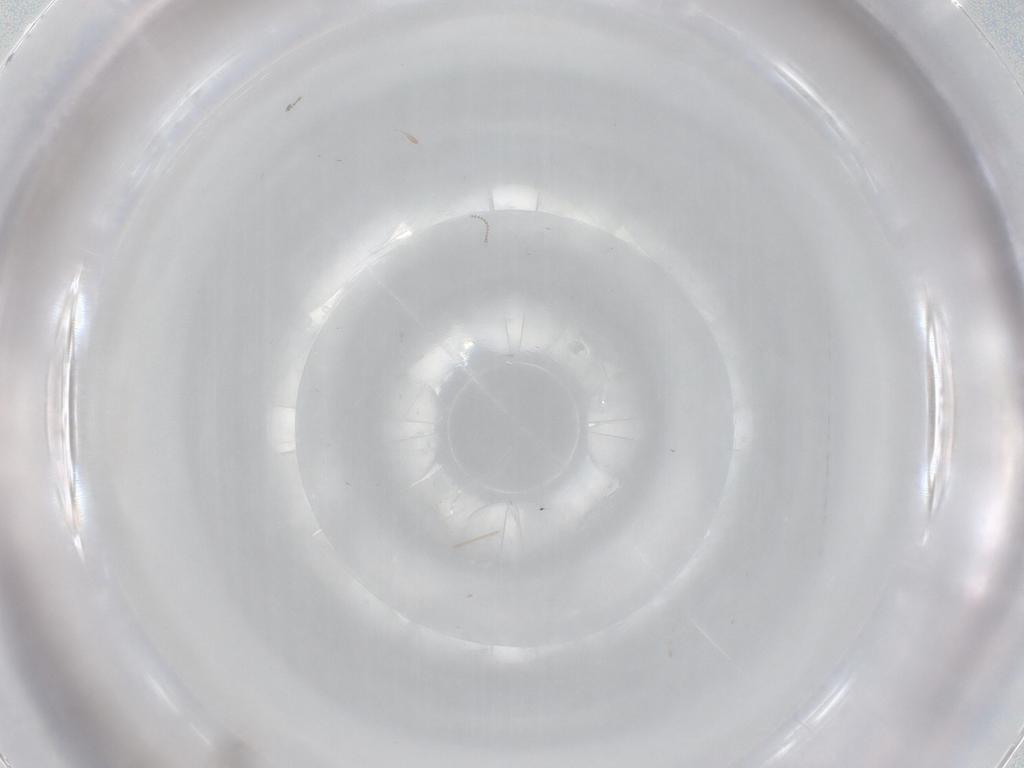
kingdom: Animalia
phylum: Arthropoda
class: Insecta
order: Diptera
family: Cecidomyiidae
